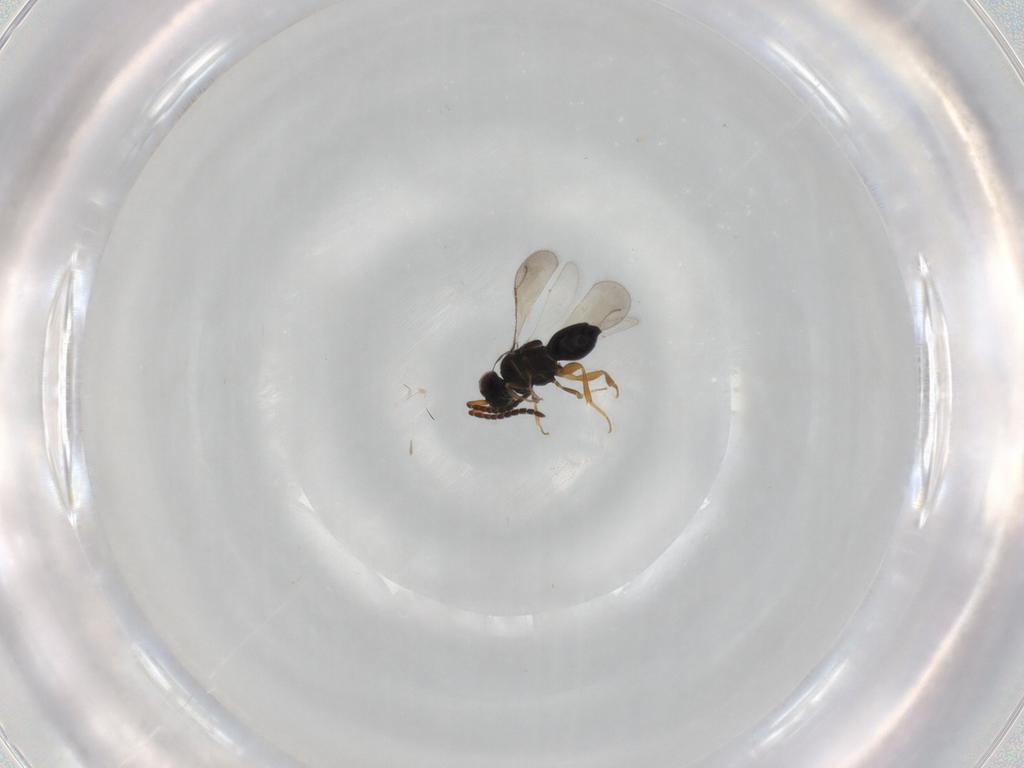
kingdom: Animalia
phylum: Arthropoda
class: Insecta
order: Hymenoptera
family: Ceraphronidae
